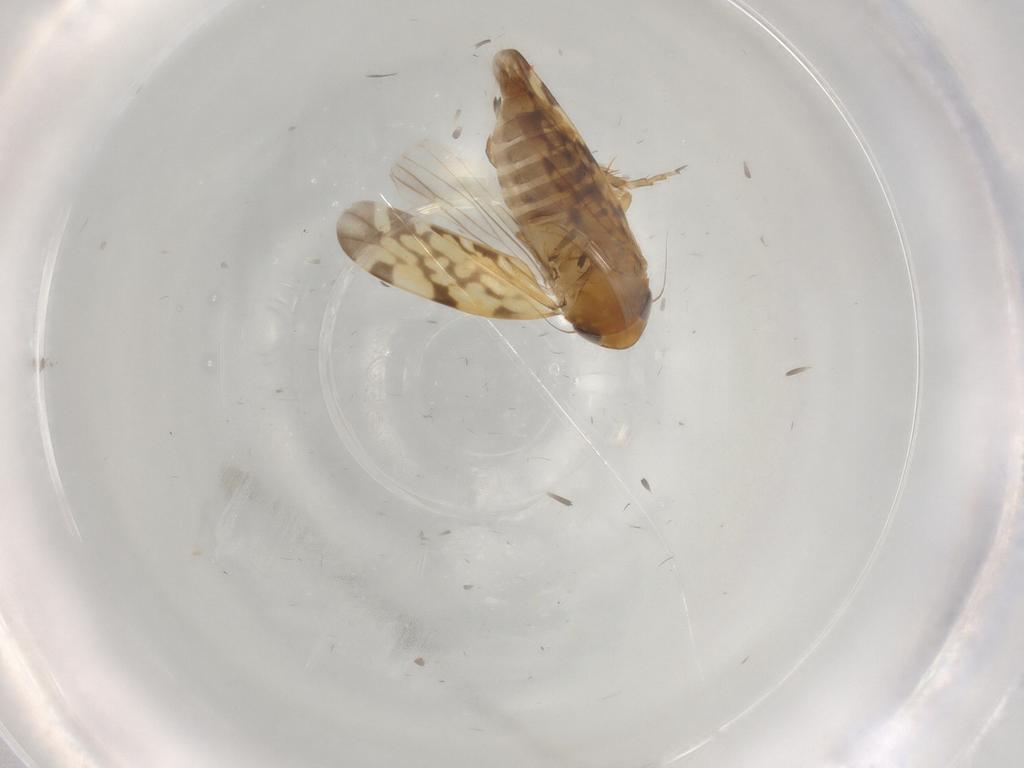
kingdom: Animalia
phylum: Arthropoda
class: Insecta
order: Hemiptera
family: Cicadellidae
